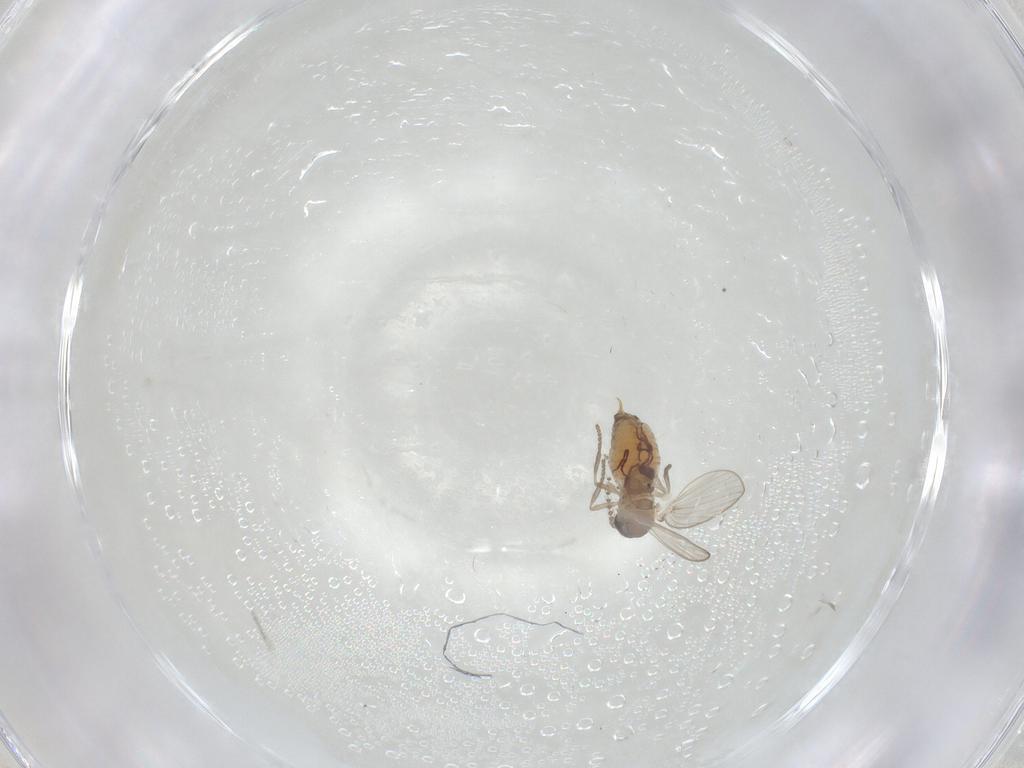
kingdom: Animalia
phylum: Arthropoda
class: Insecta
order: Diptera
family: Psychodidae
